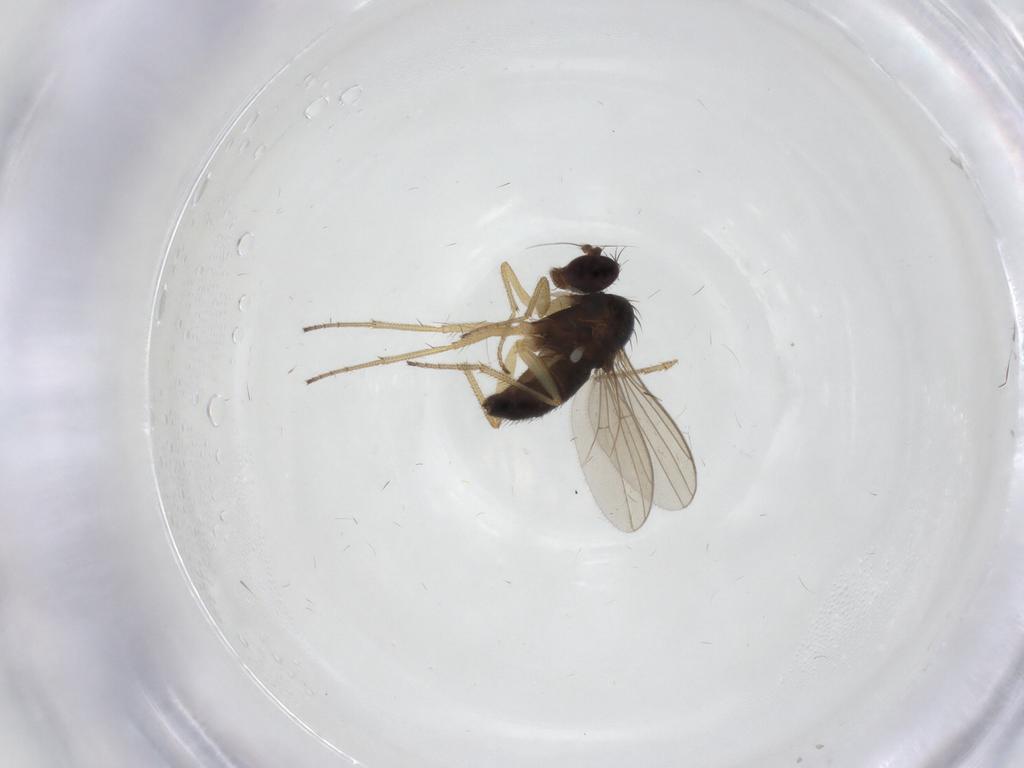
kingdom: Animalia
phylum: Arthropoda
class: Insecta
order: Diptera
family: Dolichopodidae
